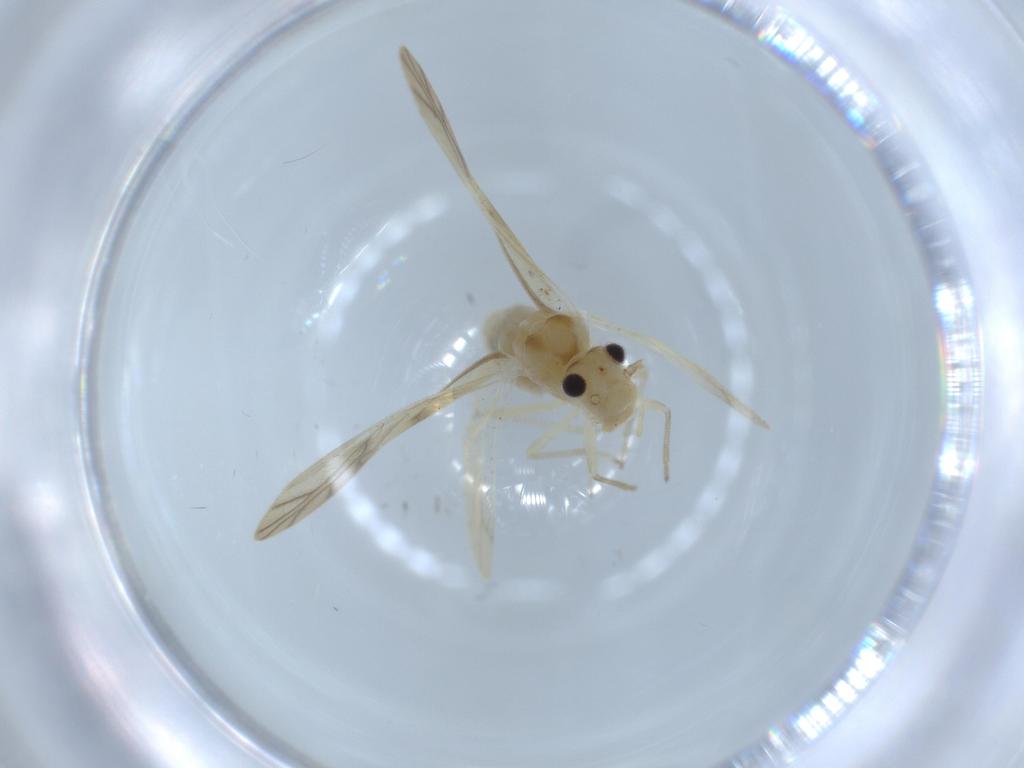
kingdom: Animalia
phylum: Arthropoda
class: Insecta
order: Psocodea
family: Caeciliusidae
